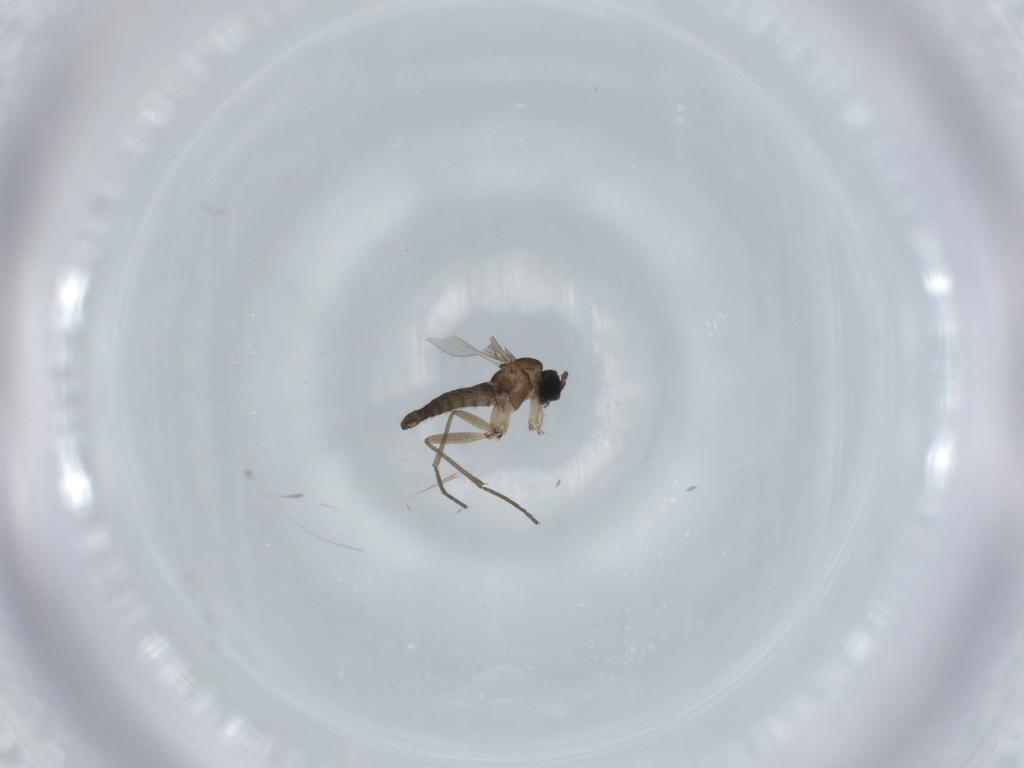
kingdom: Animalia
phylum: Arthropoda
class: Insecta
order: Diptera
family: Sciaridae
